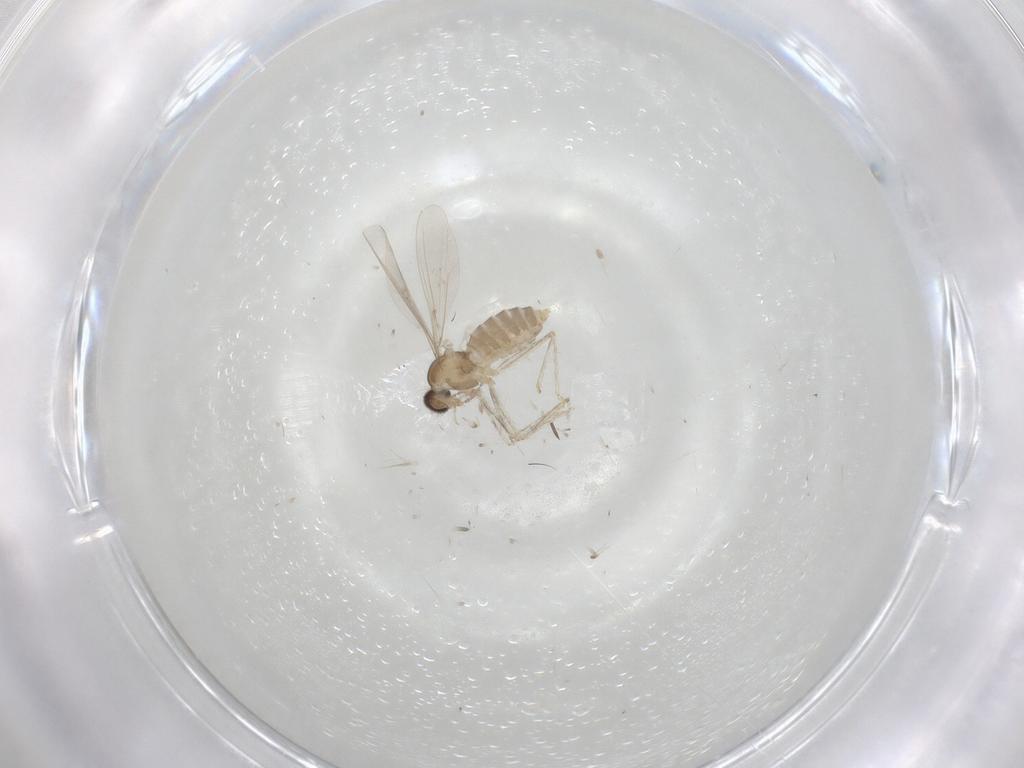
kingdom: Animalia
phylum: Arthropoda
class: Insecta
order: Diptera
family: Cecidomyiidae
